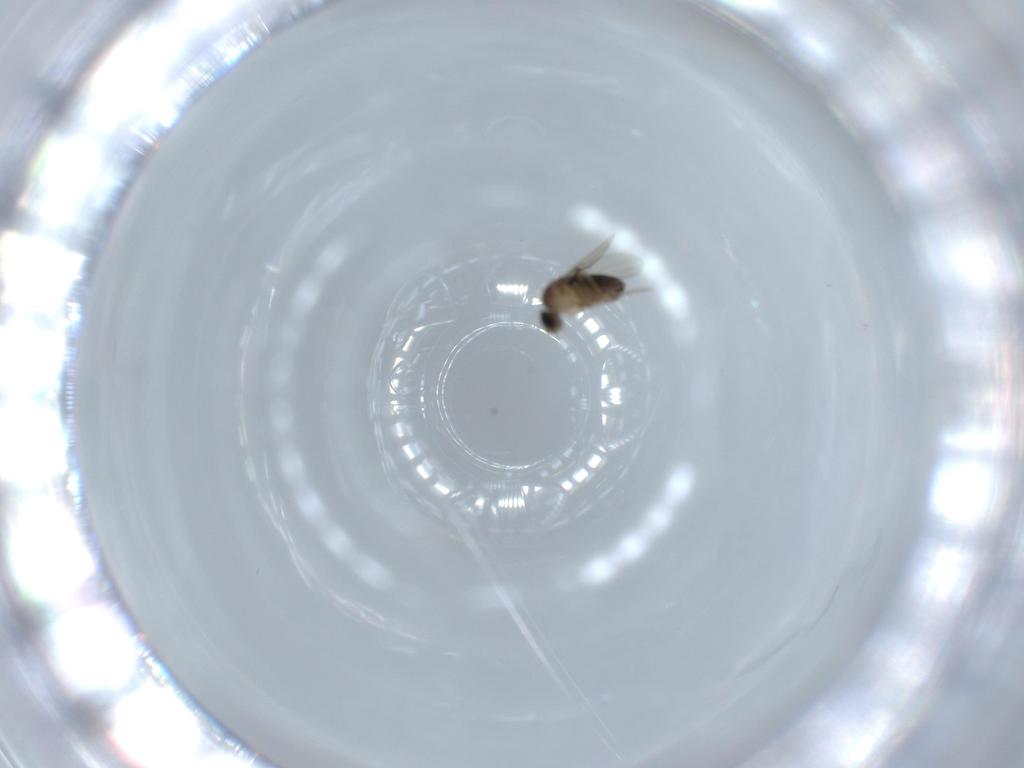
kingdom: Animalia
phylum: Arthropoda
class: Insecta
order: Diptera
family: Phoridae
